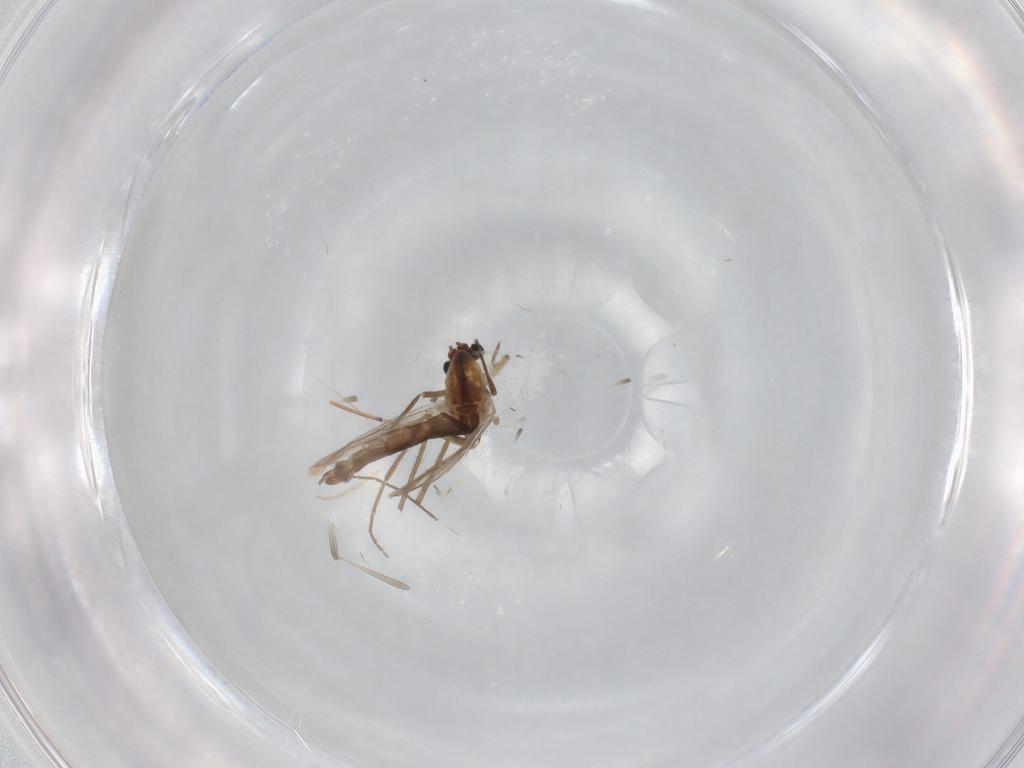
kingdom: Animalia
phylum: Arthropoda
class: Insecta
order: Diptera
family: Chironomidae
